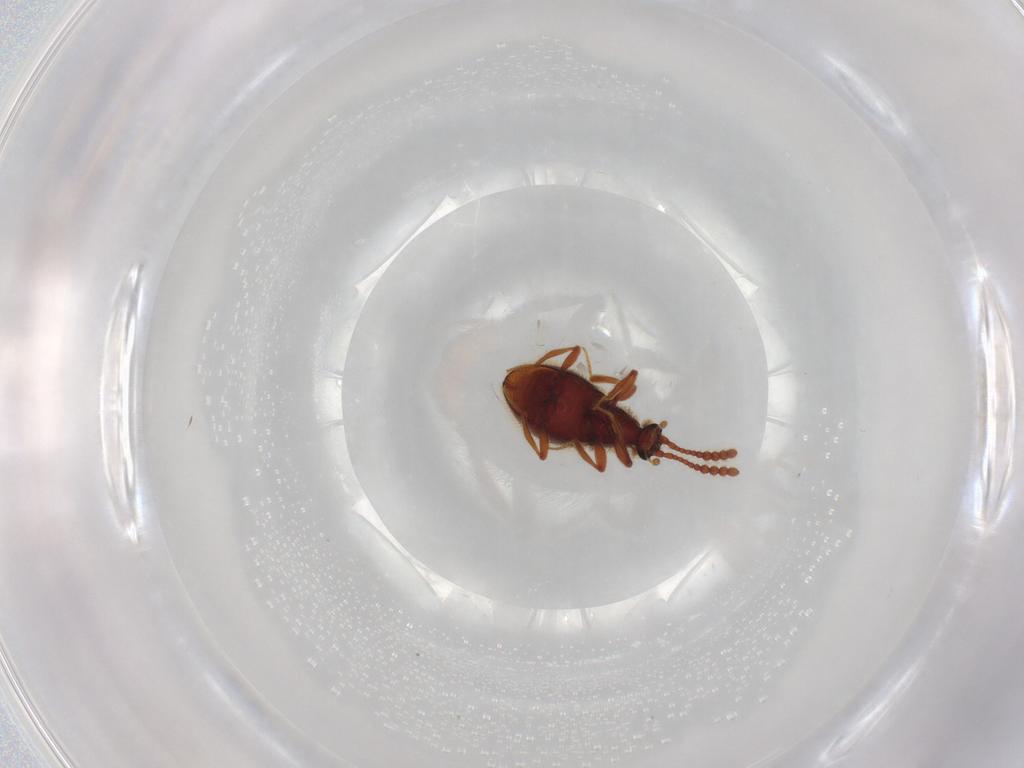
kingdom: Animalia
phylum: Arthropoda
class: Insecta
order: Coleoptera
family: Staphylinidae
